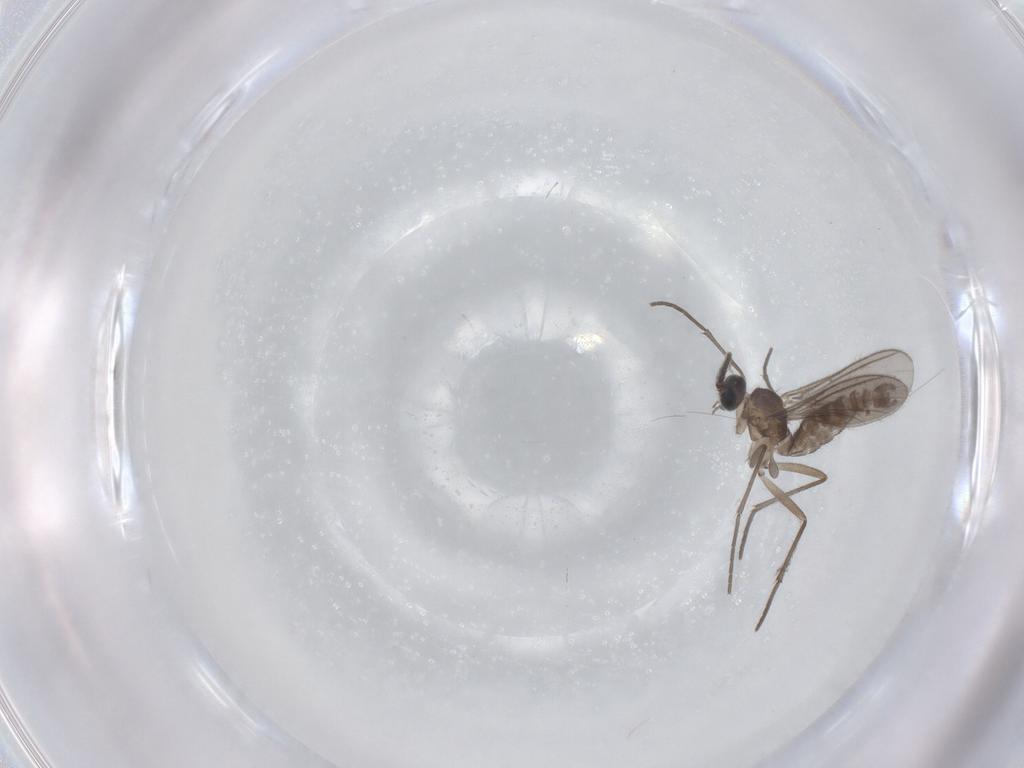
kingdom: Animalia
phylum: Arthropoda
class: Insecta
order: Diptera
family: Sciaridae
